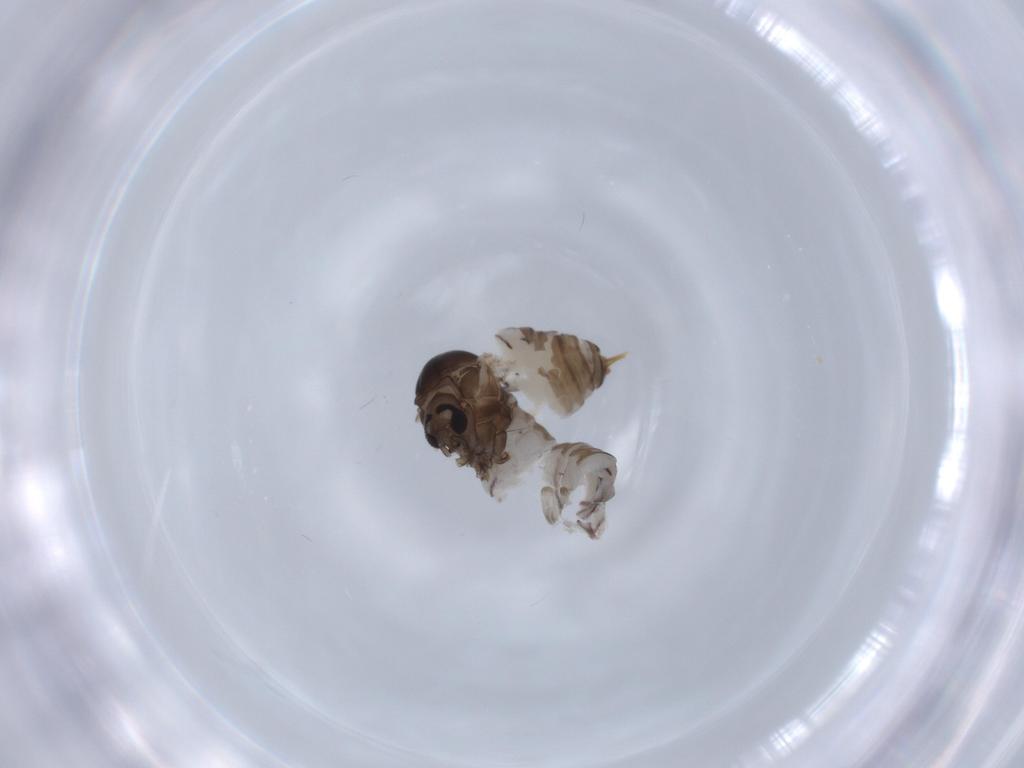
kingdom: Animalia
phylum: Arthropoda
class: Insecta
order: Diptera
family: Psychodidae
